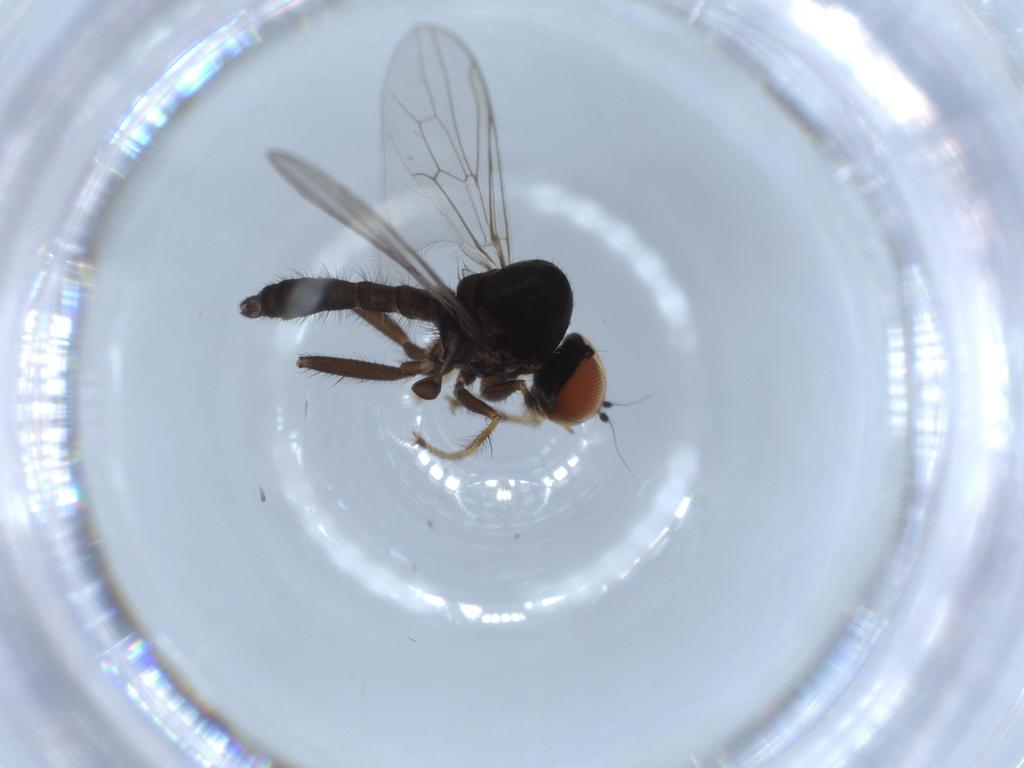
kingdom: Animalia
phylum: Arthropoda
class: Insecta
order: Diptera
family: Hybotidae
